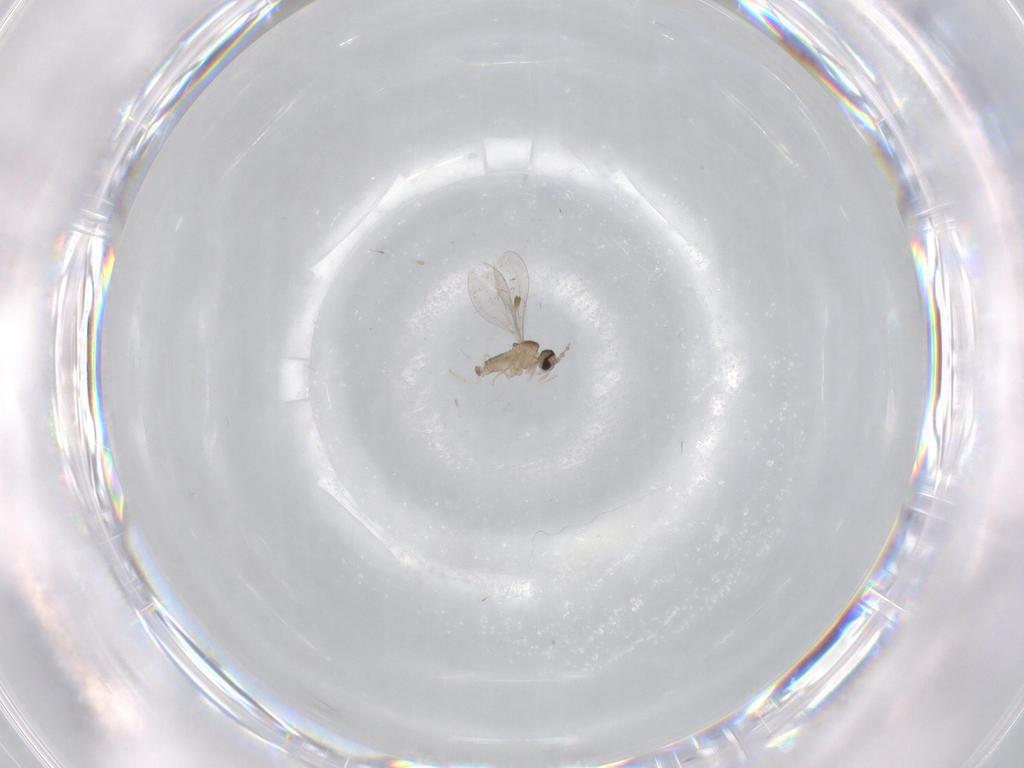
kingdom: Animalia
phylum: Arthropoda
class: Insecta
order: Diptera
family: Cecidomyiidae
